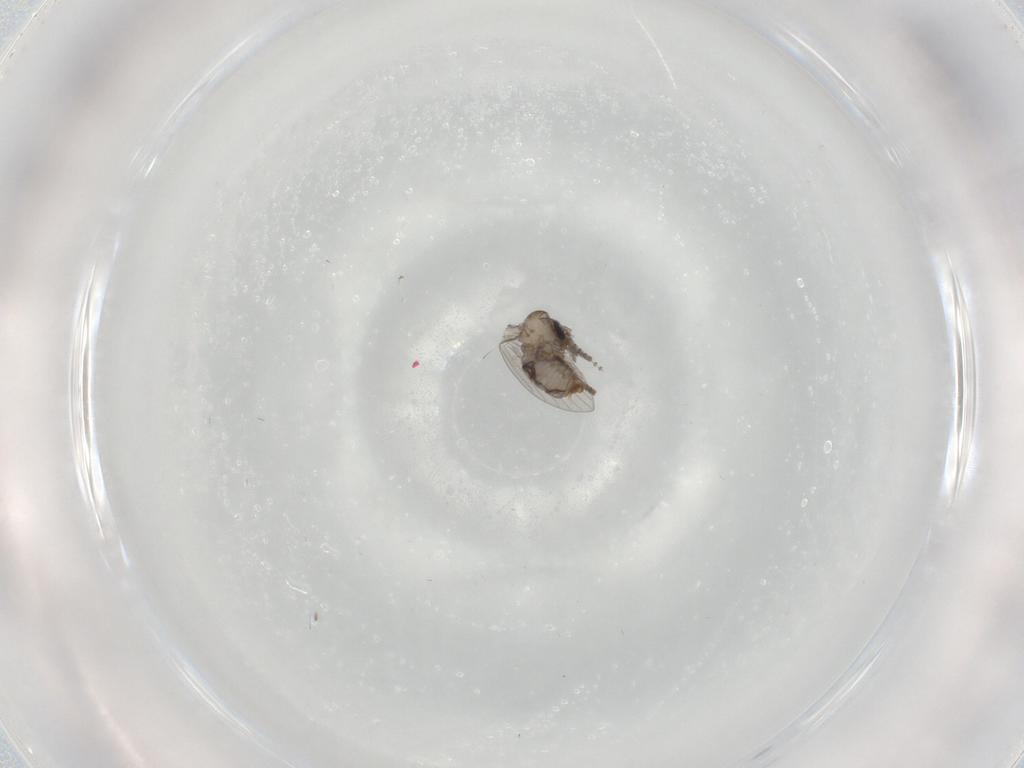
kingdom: Animalia
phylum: Arthropoda
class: Insecta
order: Diptera
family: Psychodidae
